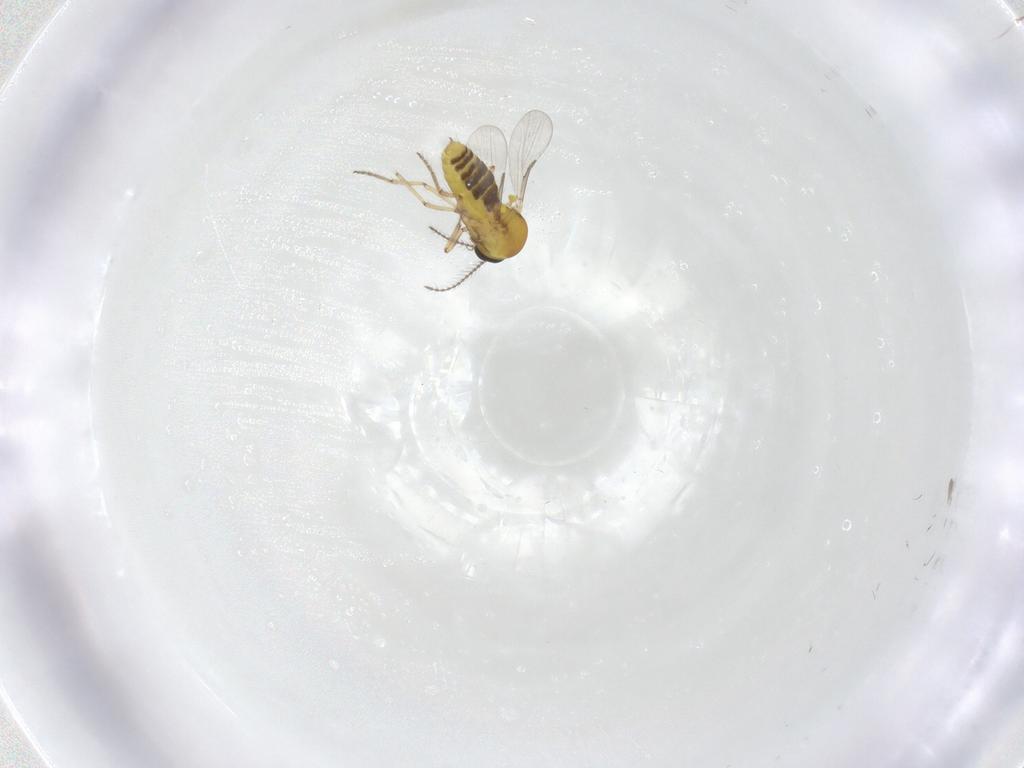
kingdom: Animalia
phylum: Arthropoda
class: Insecta
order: Diptera
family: Ceratopogonidae
